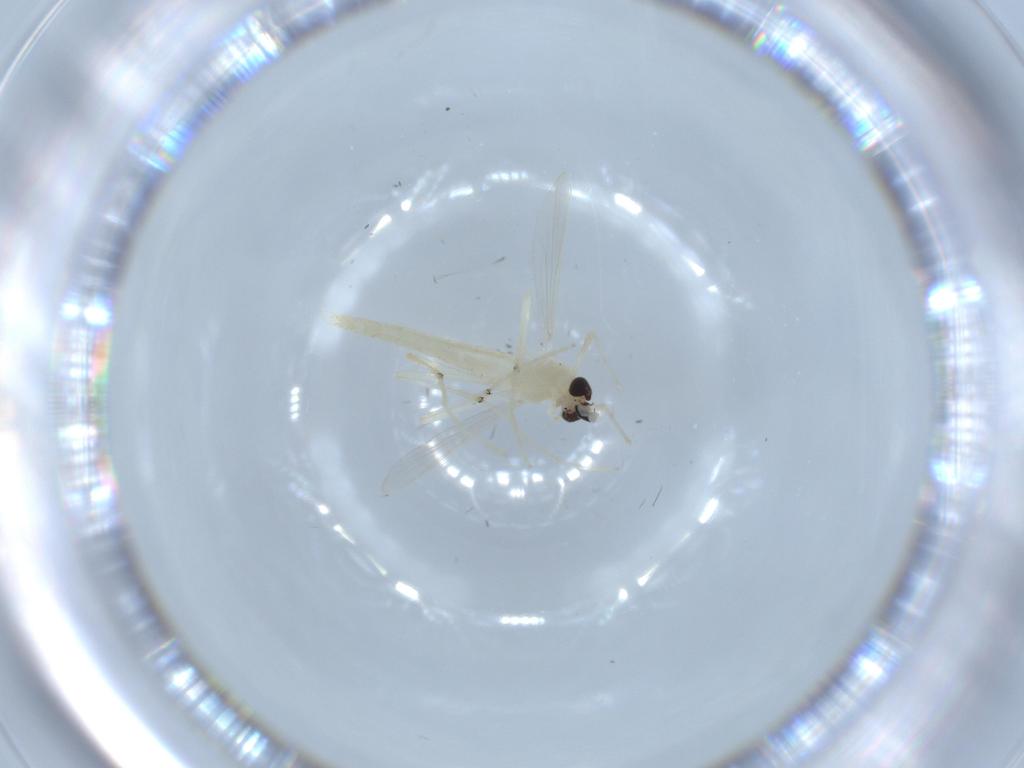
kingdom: Animalia
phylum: Arthropoda
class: Insecta
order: Diptera
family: Chironomidae
